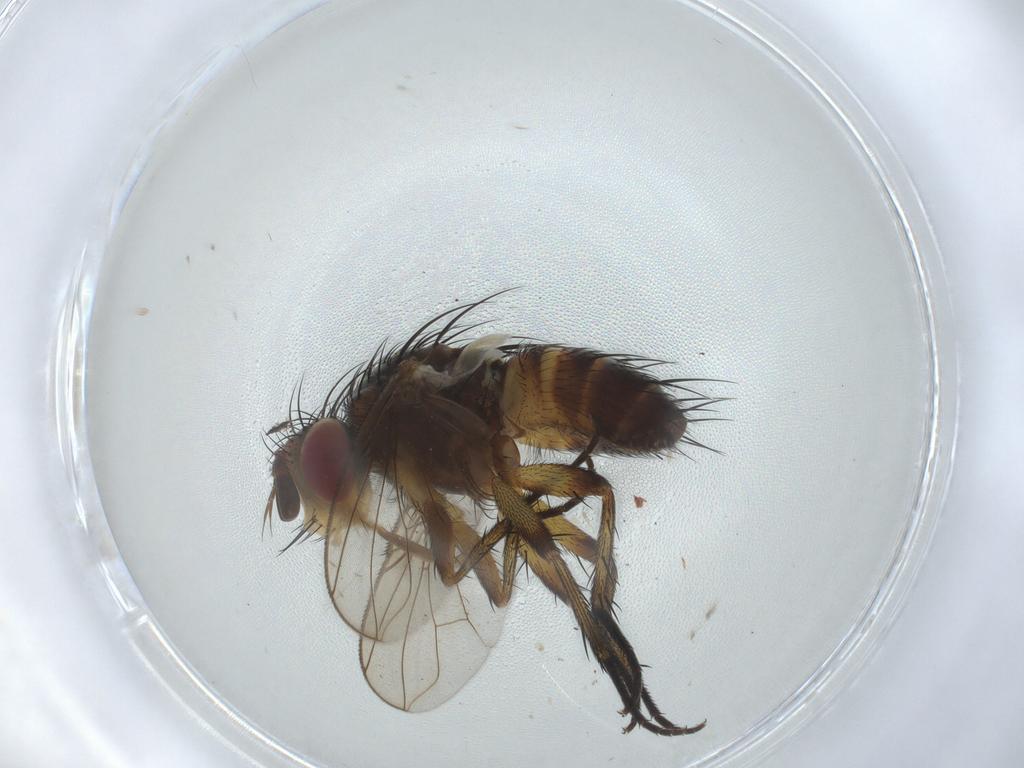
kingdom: Animalia
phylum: Arthropoda
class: Insecta
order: Diptera
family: Tachinidae
